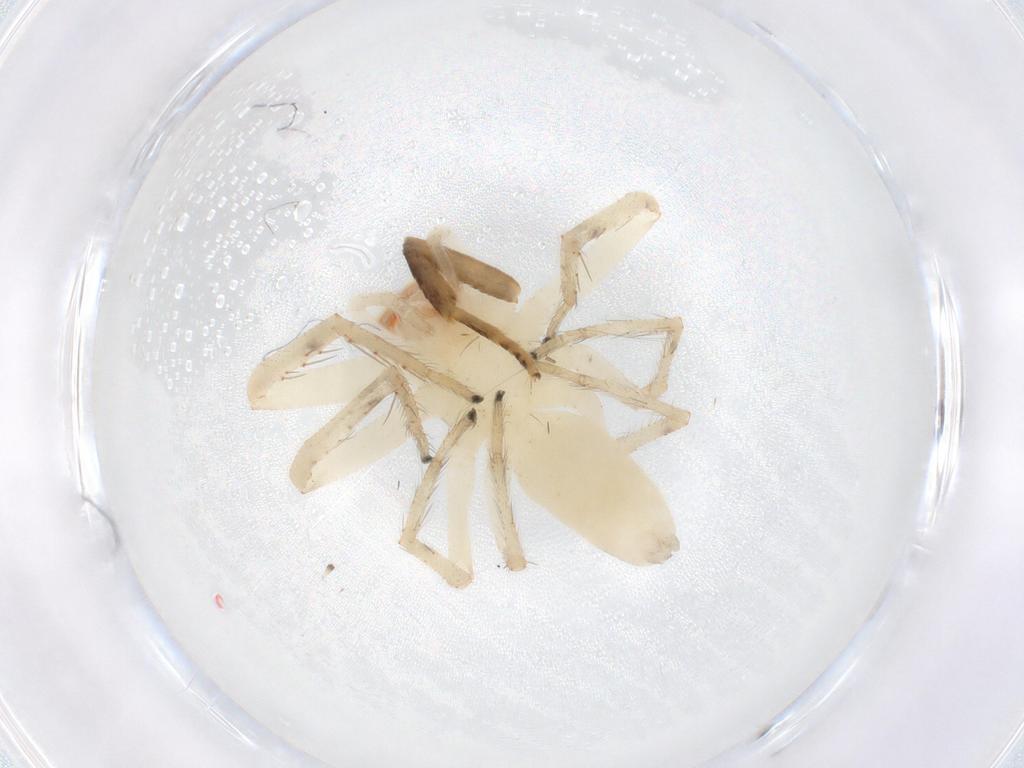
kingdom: Animalia
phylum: Arthropoda
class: Arachnida
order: Araneae
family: Salticidae
